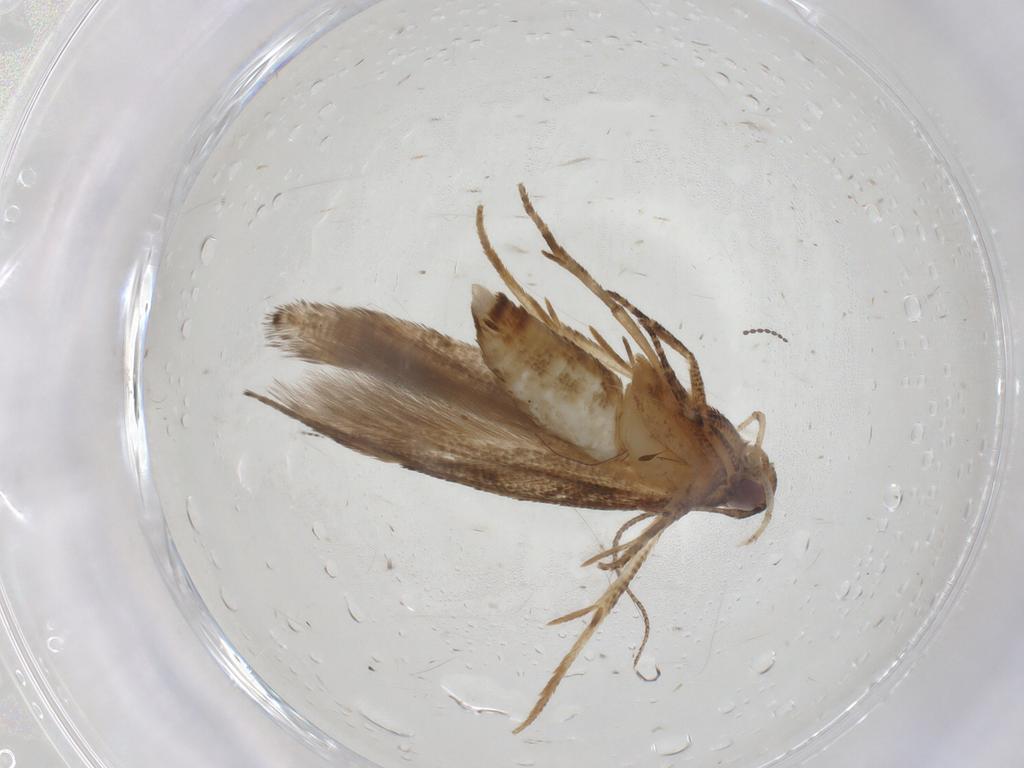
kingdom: Animalia
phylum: Arthropoda
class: Insecta
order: Lepidoptera
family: Elachistidae
